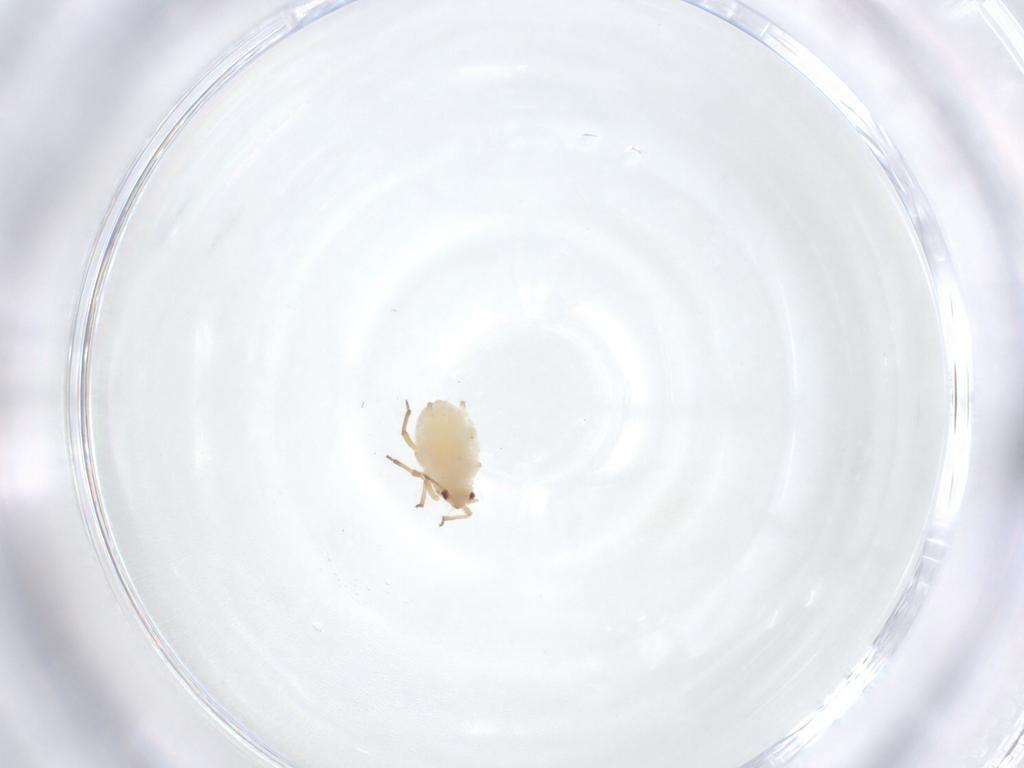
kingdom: Animalia
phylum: Arthropoda
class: Insecta
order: Hemiptera
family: Aphididae
